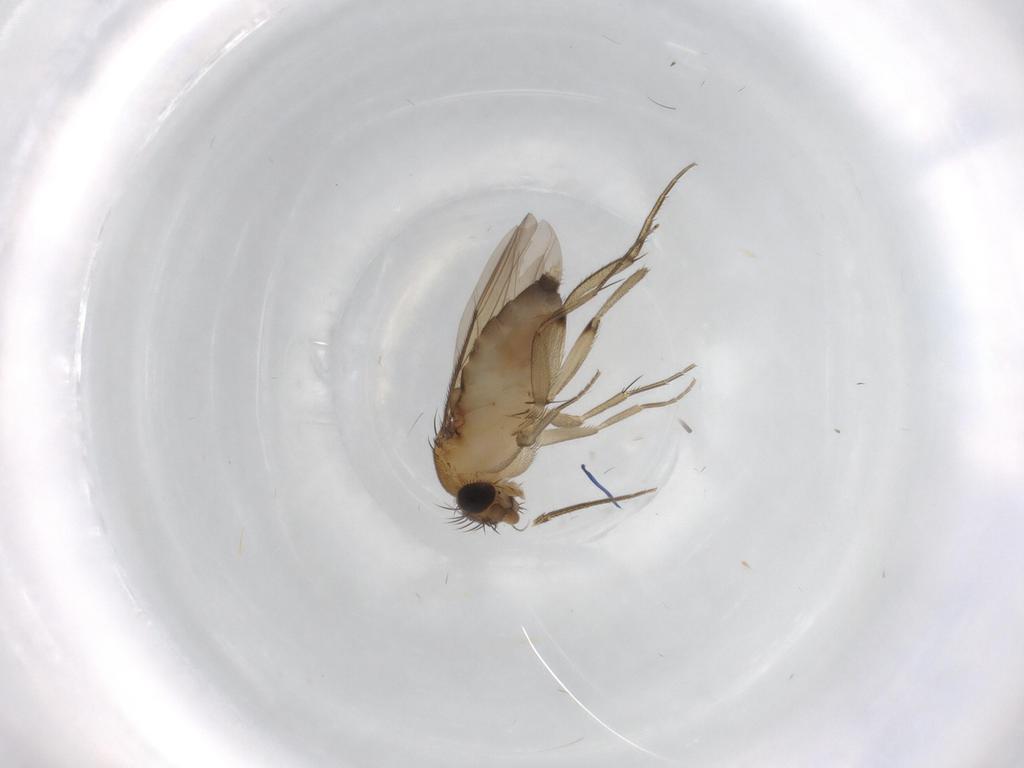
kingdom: Animalia
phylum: Arthropoda
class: Insecta
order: Diptera
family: Phoridae
